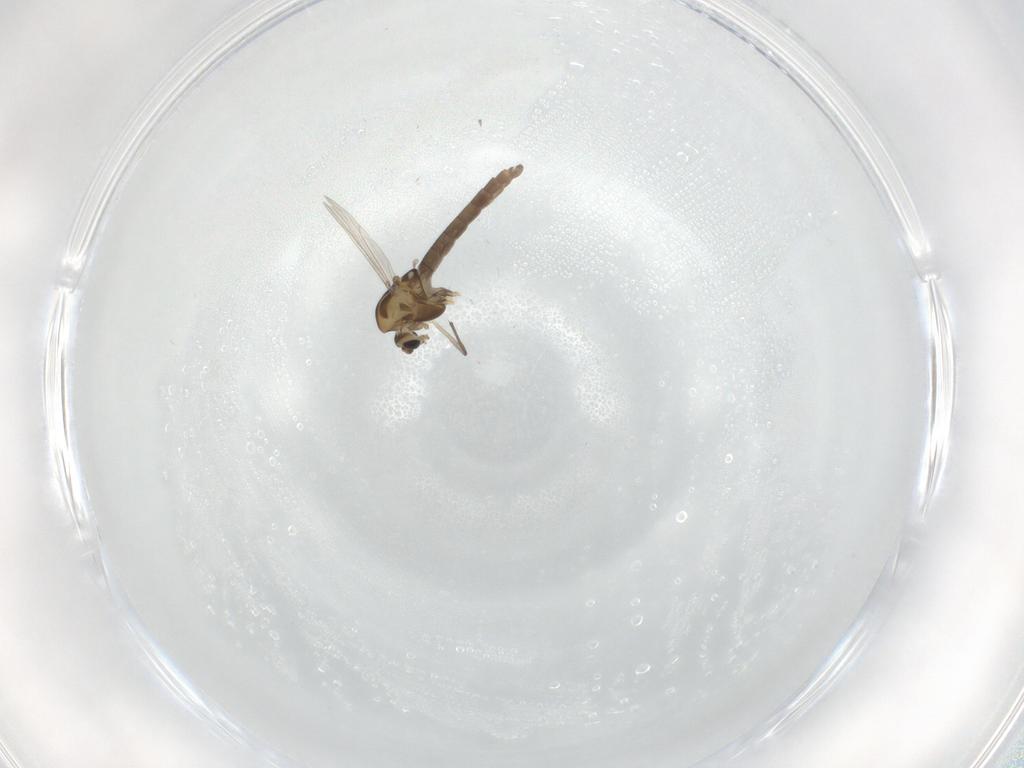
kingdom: Animalia
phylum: Arthropoda
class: Insecta
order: Diptera
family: Chironomidae
